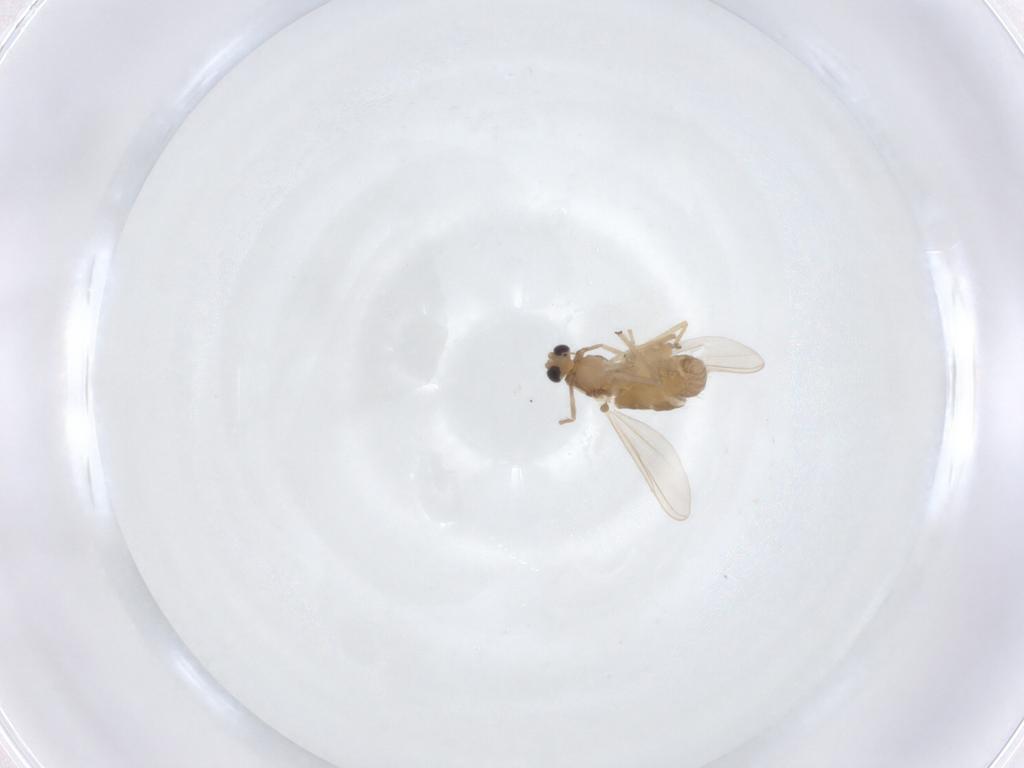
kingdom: Animalia
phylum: Arthropoda
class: Insecta
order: Diptera
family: Chironomidae
